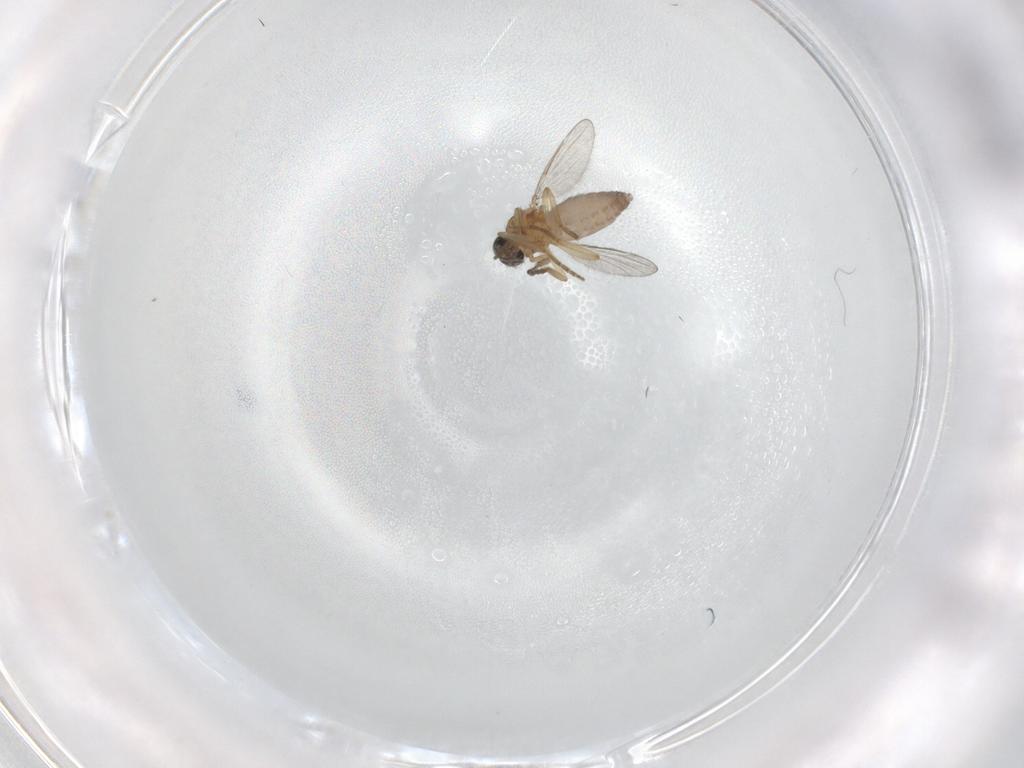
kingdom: Animalia
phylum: Arthropoda
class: Insecta
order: Diptera
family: Ceratopogonidae
